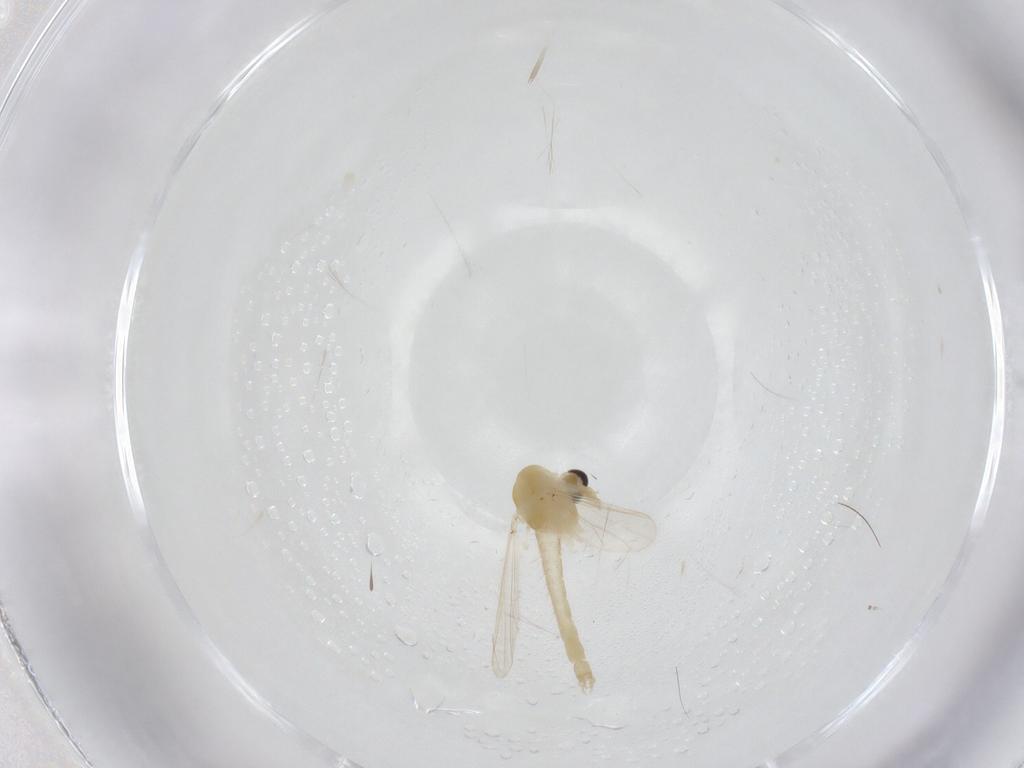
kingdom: Animalia
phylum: Arthropoda
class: Insecta
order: Diptera
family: Chironomidae
